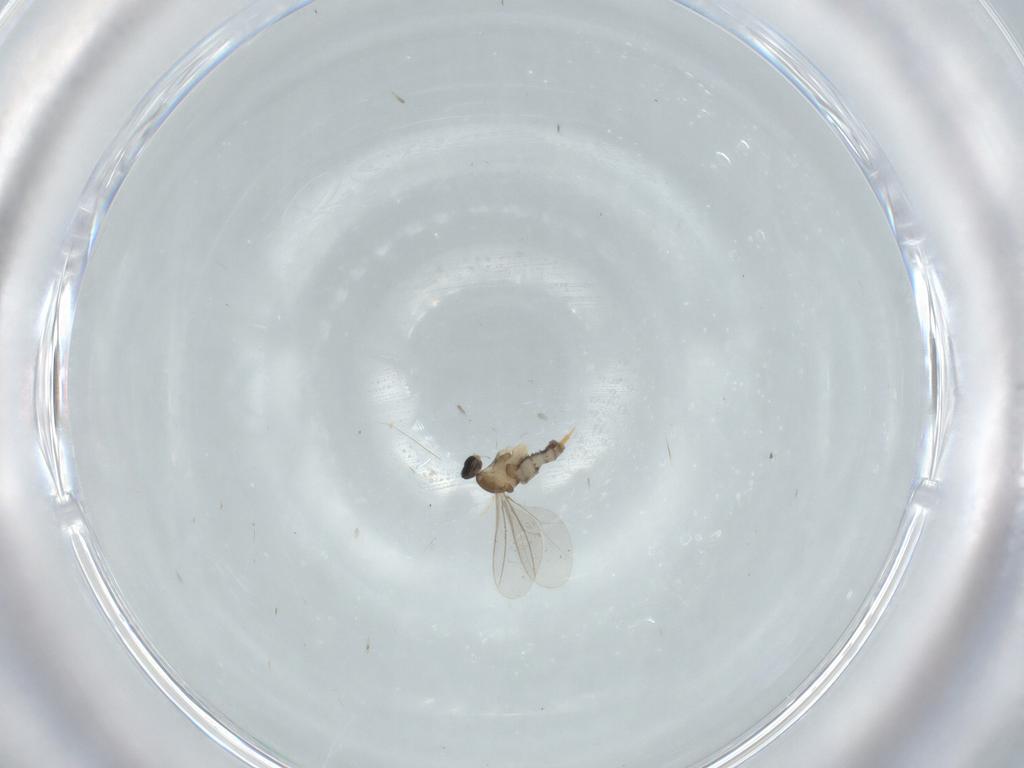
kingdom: Animalia
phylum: Arthropoda
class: Insecta
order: Diptera
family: Cecidomyiidae
